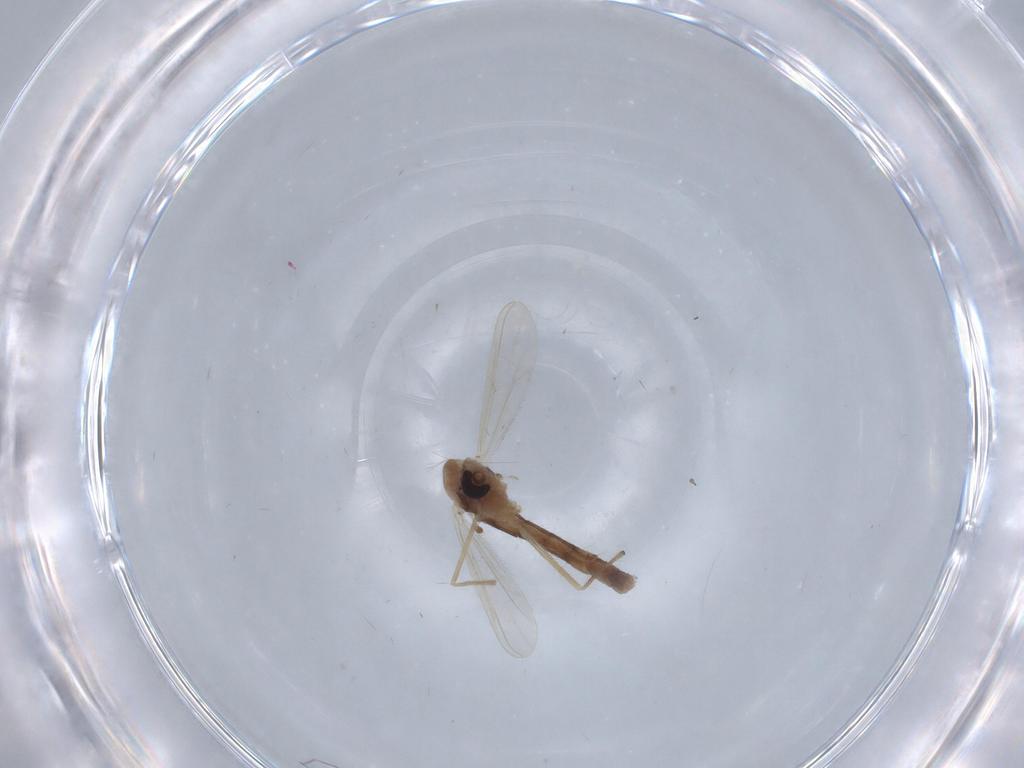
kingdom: Animalia
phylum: Arthropoda
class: Insecta
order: Diptera
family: Chironomidae
